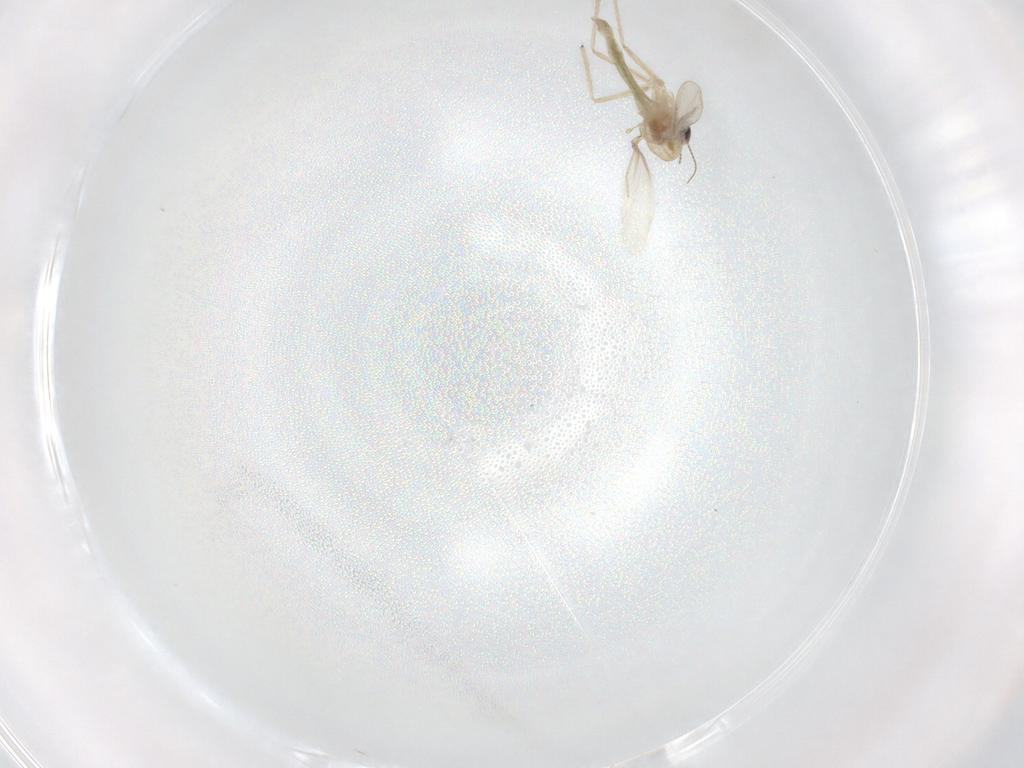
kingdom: Animalia
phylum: Arthropoda
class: Insecta
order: Diptera
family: Chironomidae
